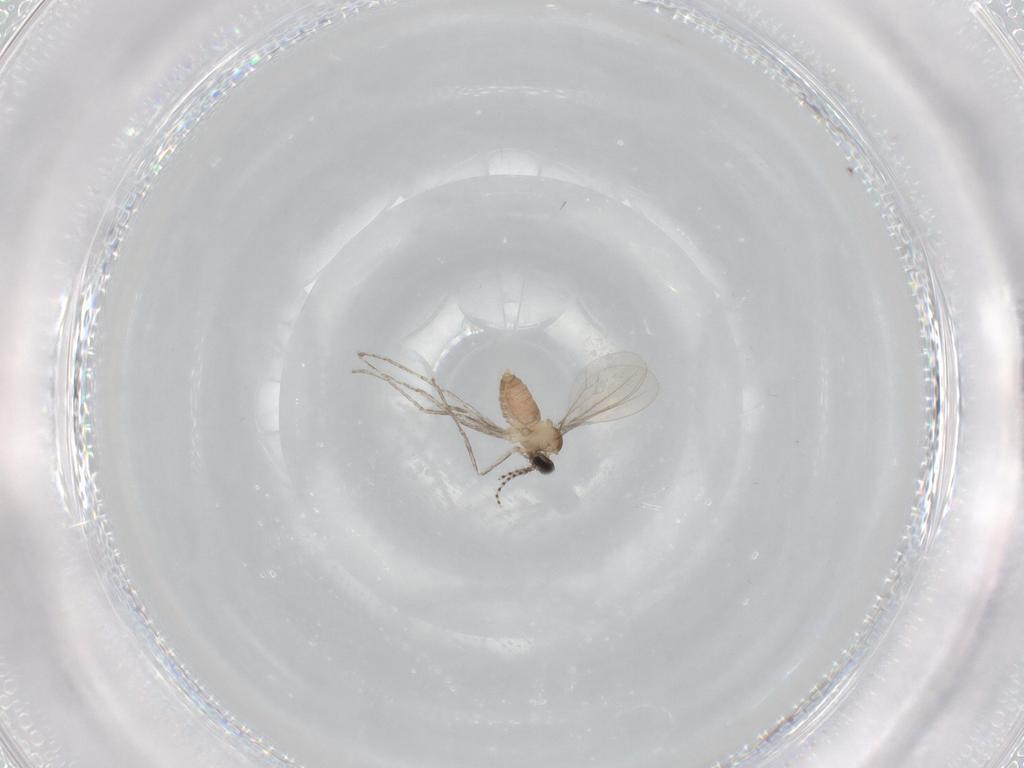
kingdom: Animalia
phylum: Arthropoda
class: Insecta
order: Diptera
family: Cecidomyiidae
